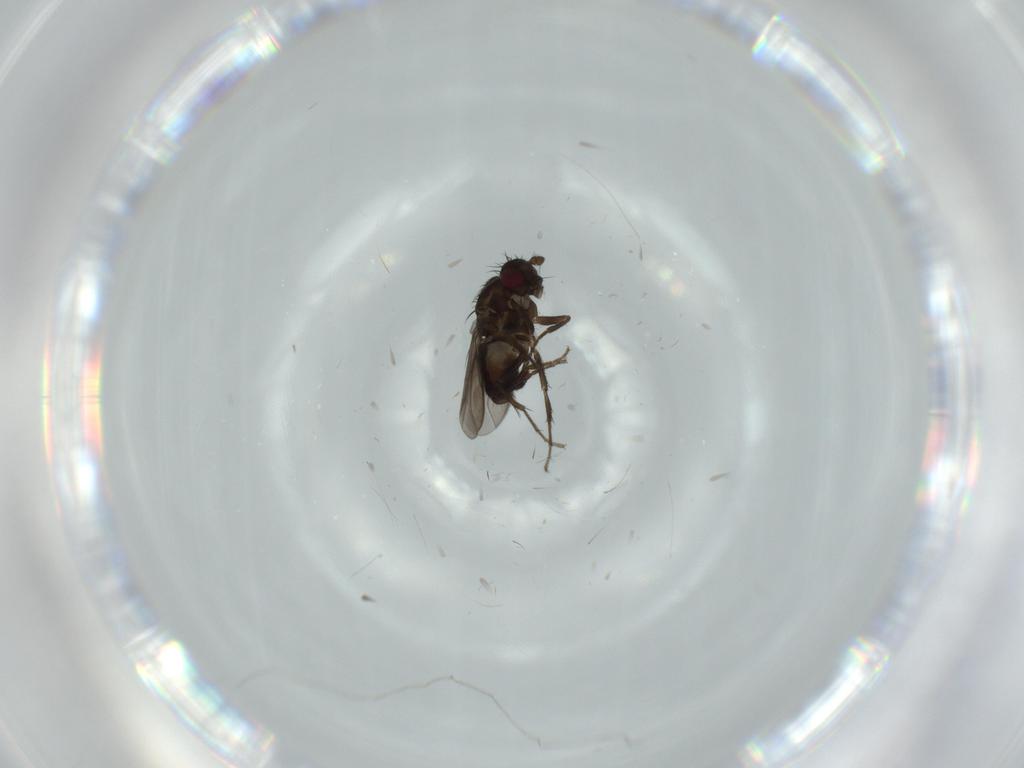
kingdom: Animalia
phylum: Arthropoda
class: Insecta
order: Diptera
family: Sphaeroceridae
